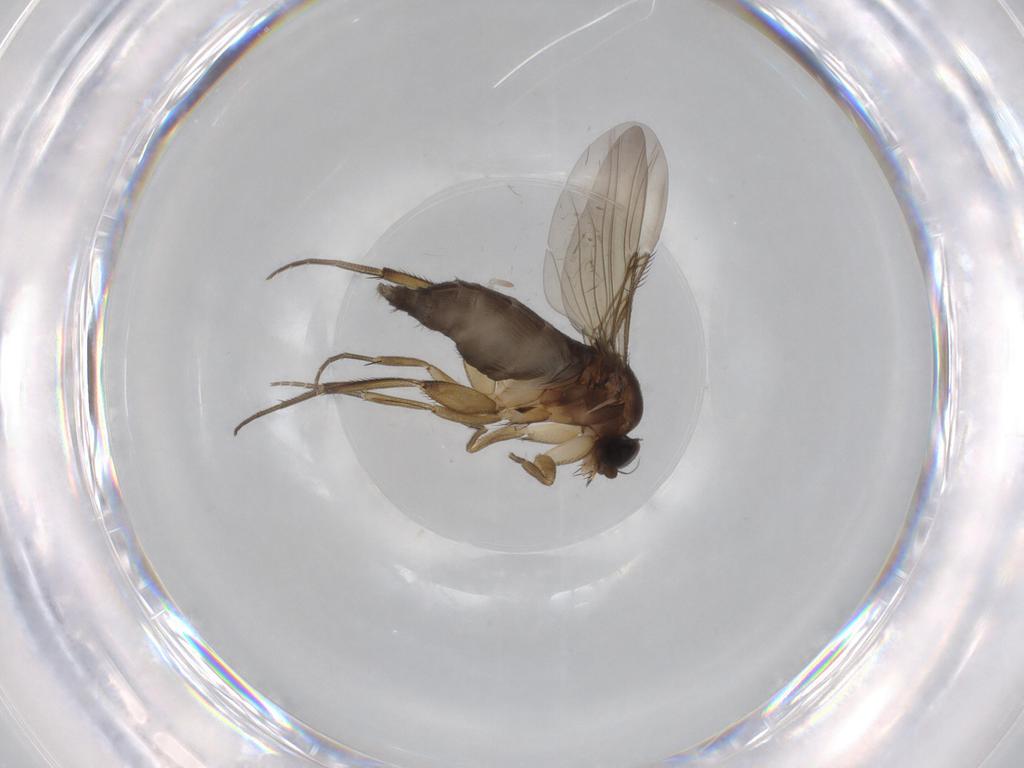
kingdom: Animalia
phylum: Arthropoda
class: Insecta
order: Diptera
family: Phoridae
